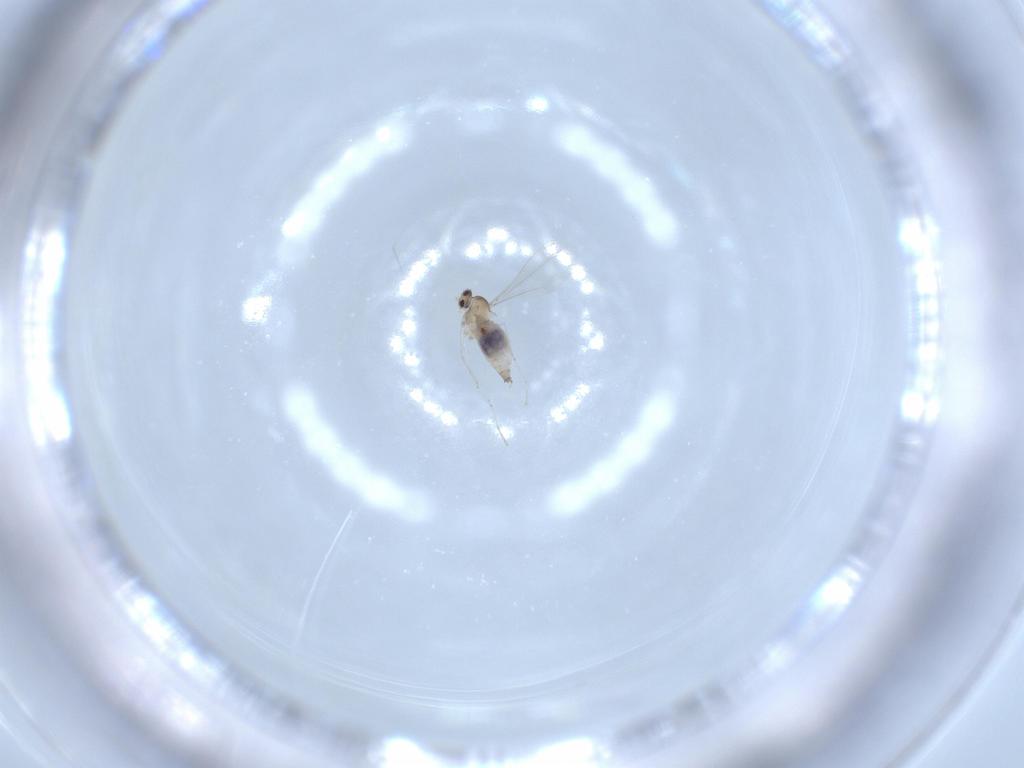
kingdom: Animalia
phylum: Arthropoda
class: Insecta
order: Diptera
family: Cecidomyiidae
